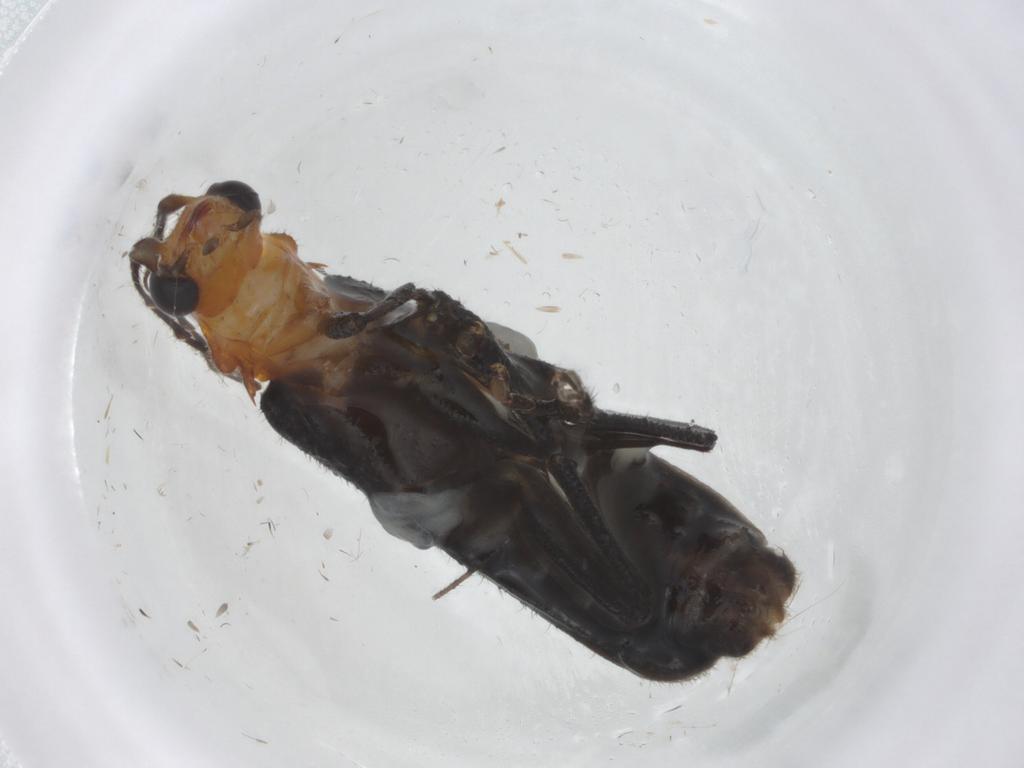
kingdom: Animalia
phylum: Arthropoda
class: Insecta
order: Coleoptera
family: Cantharidae
